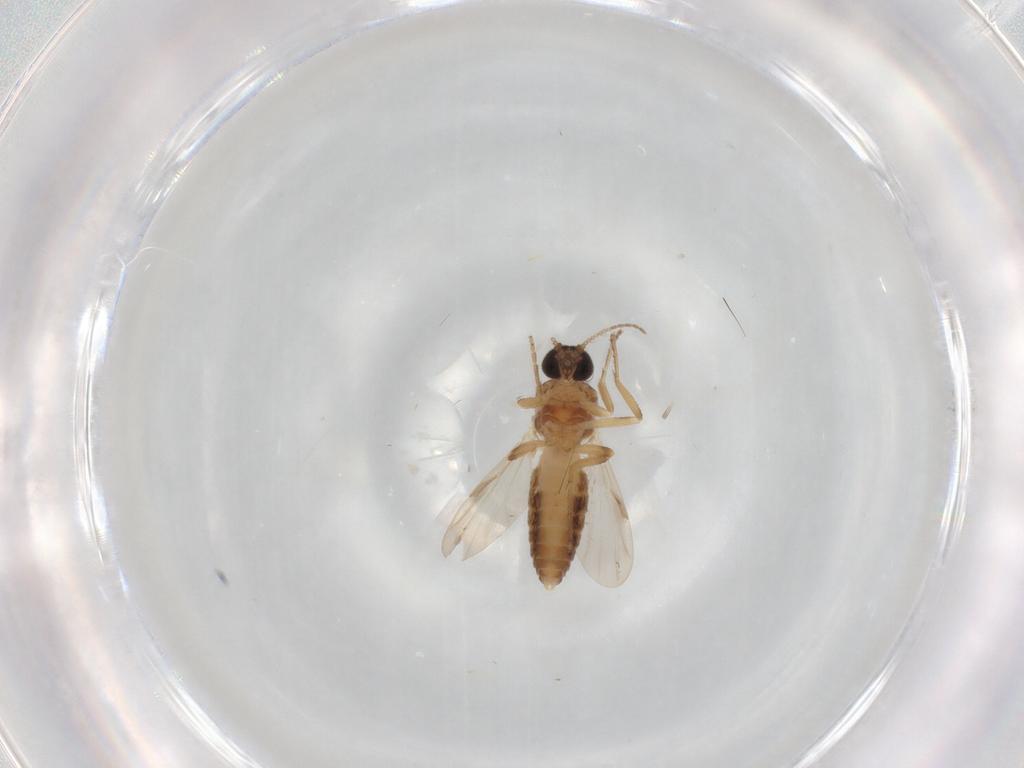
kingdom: Animalia
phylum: Arthropoda
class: Insecta
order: Diptera
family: Ceratopogonidae
